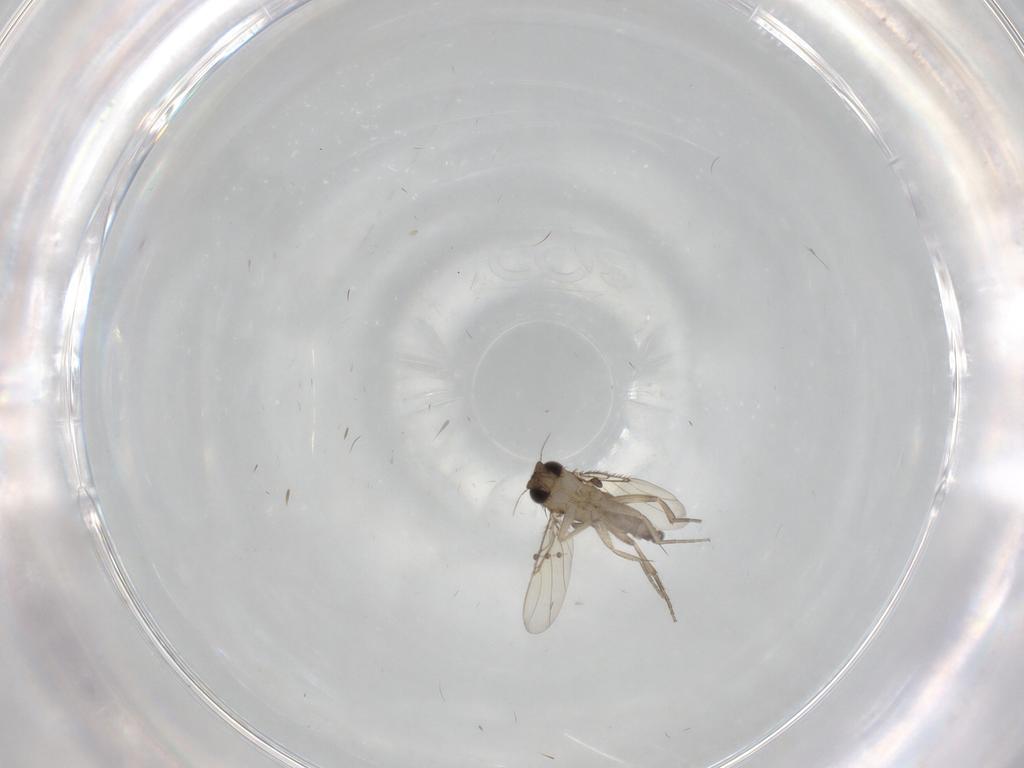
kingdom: Animalia
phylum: Arthropoda
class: Insecta
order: Diptera
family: Psychodidae
